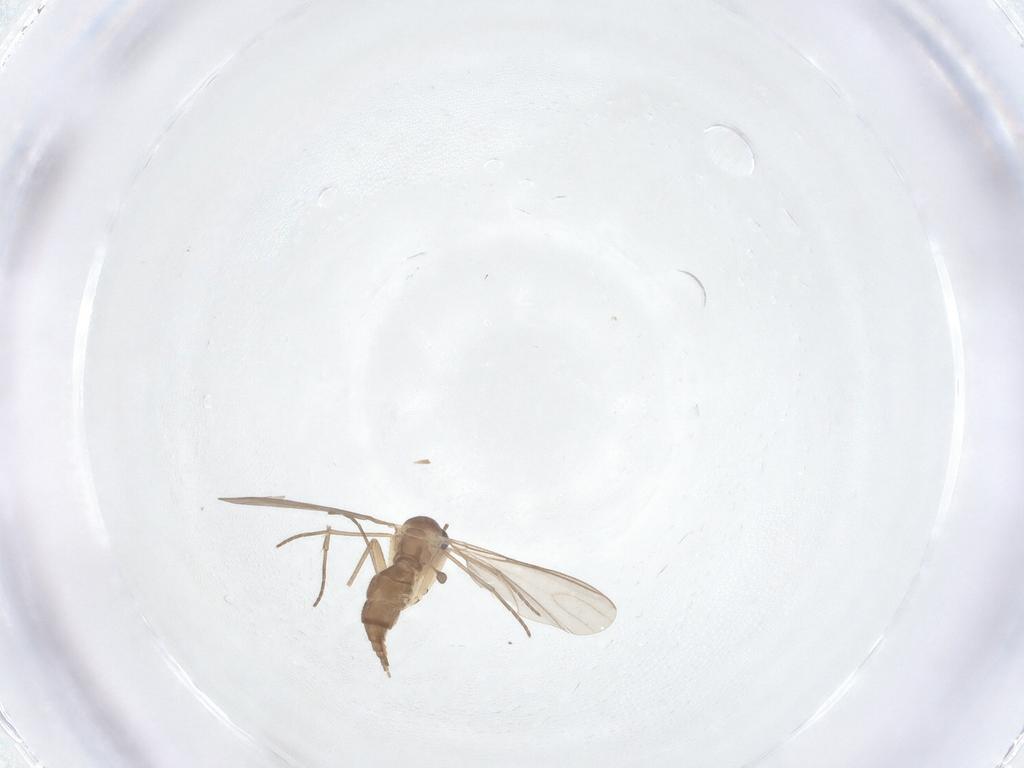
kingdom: Animalia
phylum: Arthropoda
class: Insecta
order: Diptera
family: Sciaridae
